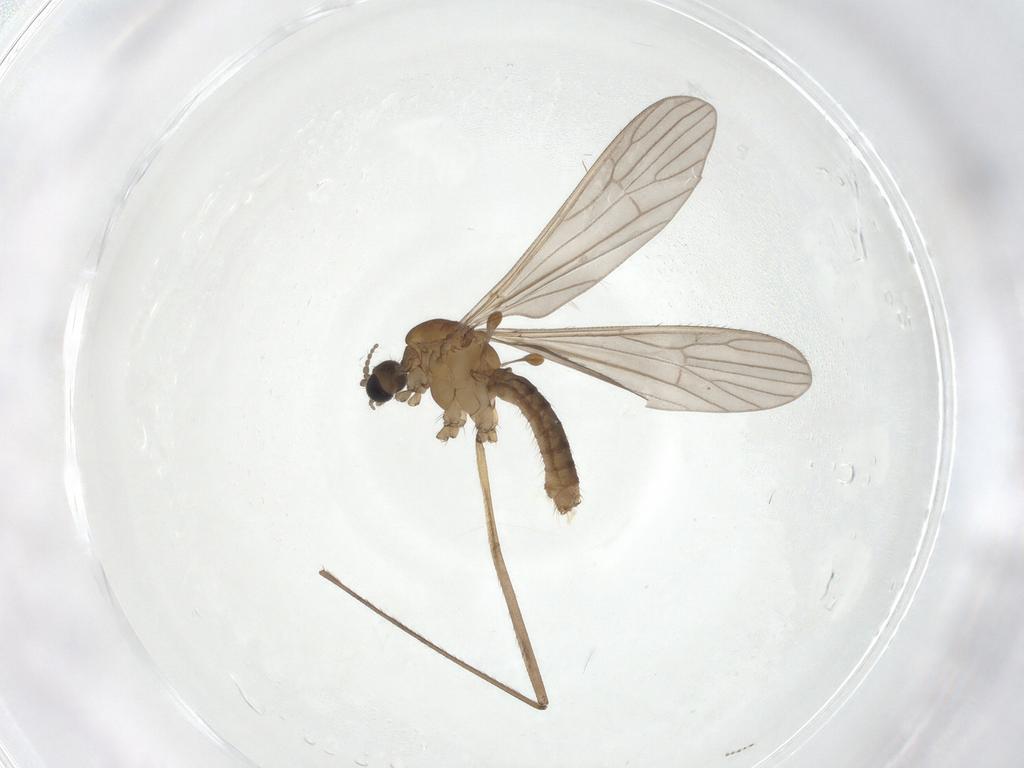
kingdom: Animalia
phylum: Arthropoda
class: Insecta
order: Diptera
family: Limoniidae
